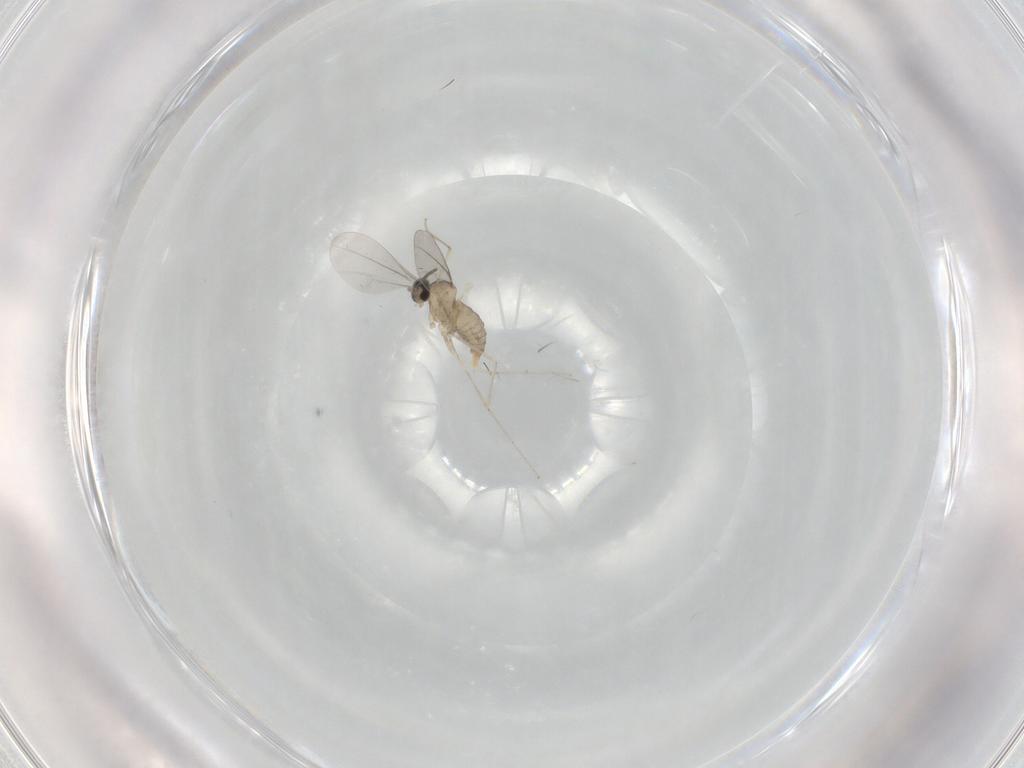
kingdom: Animalia
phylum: Arthropoda
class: Insecta
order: Diptera
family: Cecidomyiidae
